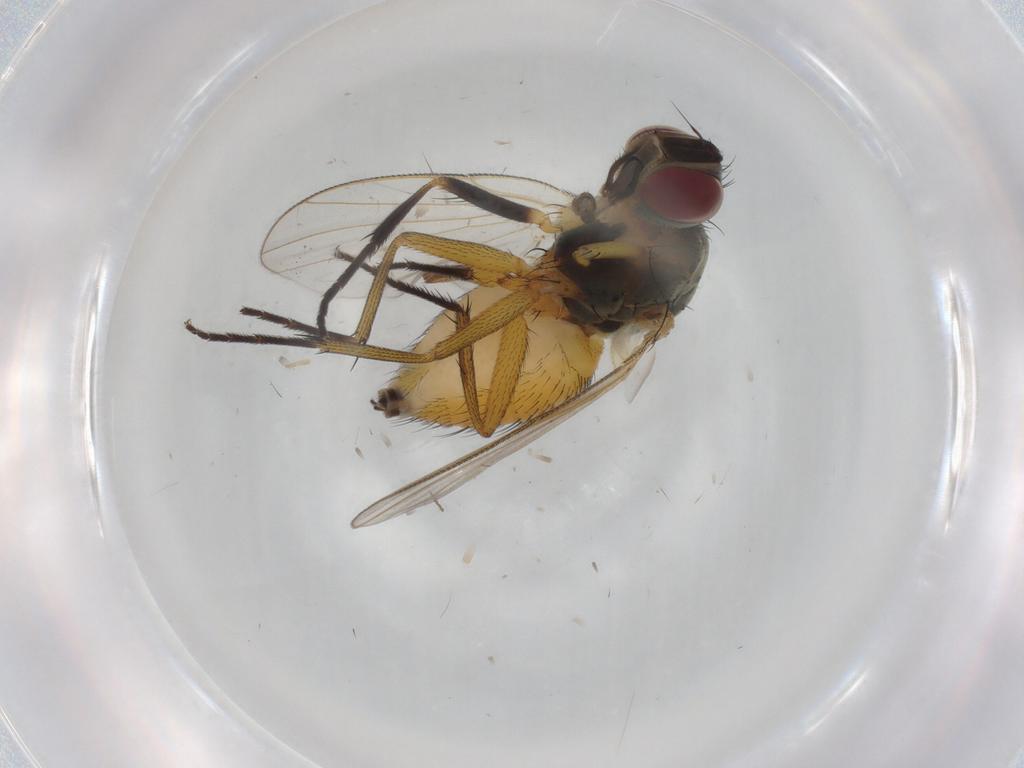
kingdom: Animalia
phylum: Arthropoda
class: Insecta
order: Diptera
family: Muscidae
